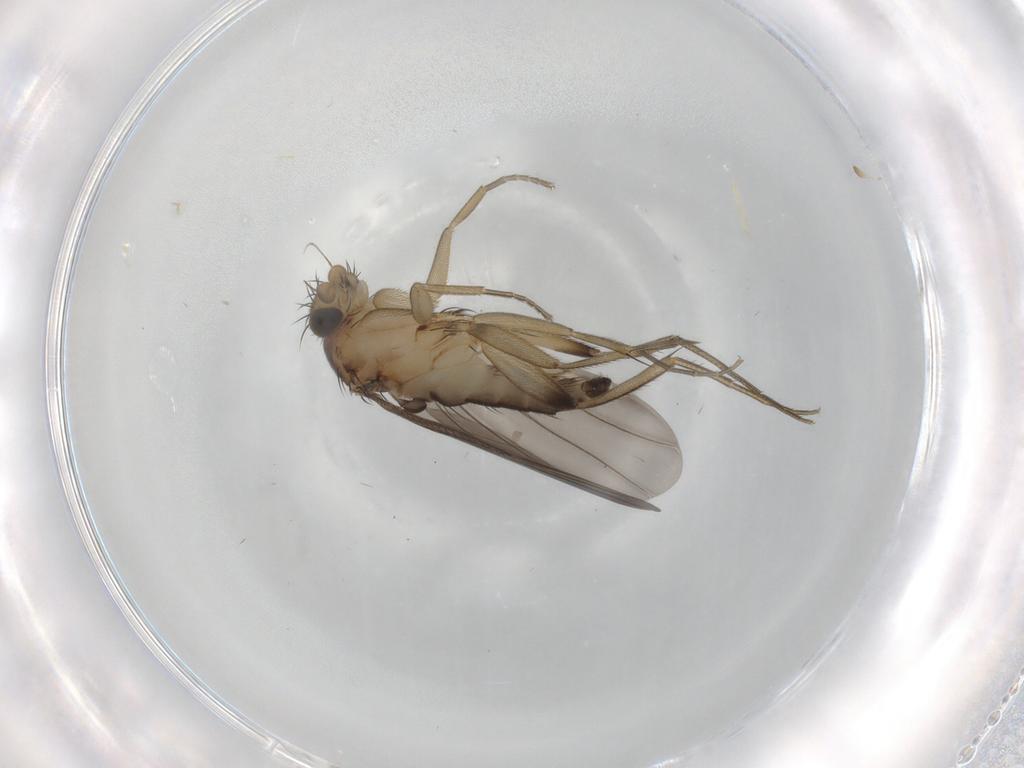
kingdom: Animalia
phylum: Arthropoda
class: Insecta
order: Diptera
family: Phoridae
